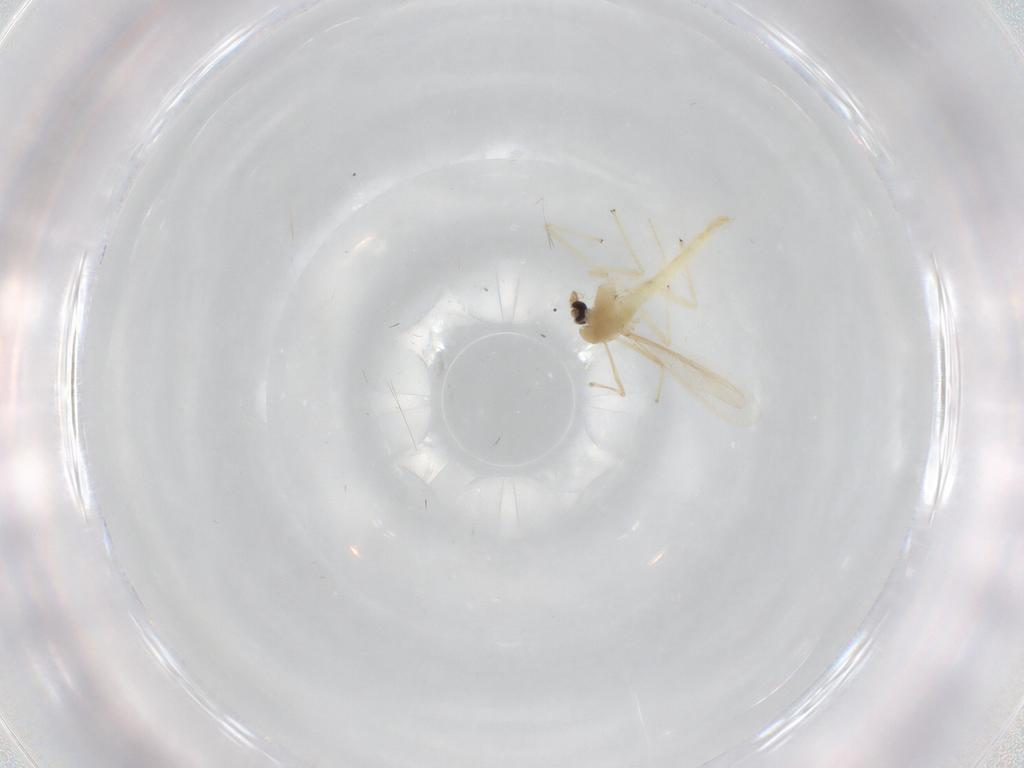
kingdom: Animalia
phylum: Arthropoda
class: Insecta
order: Diptera
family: Chironomidae
